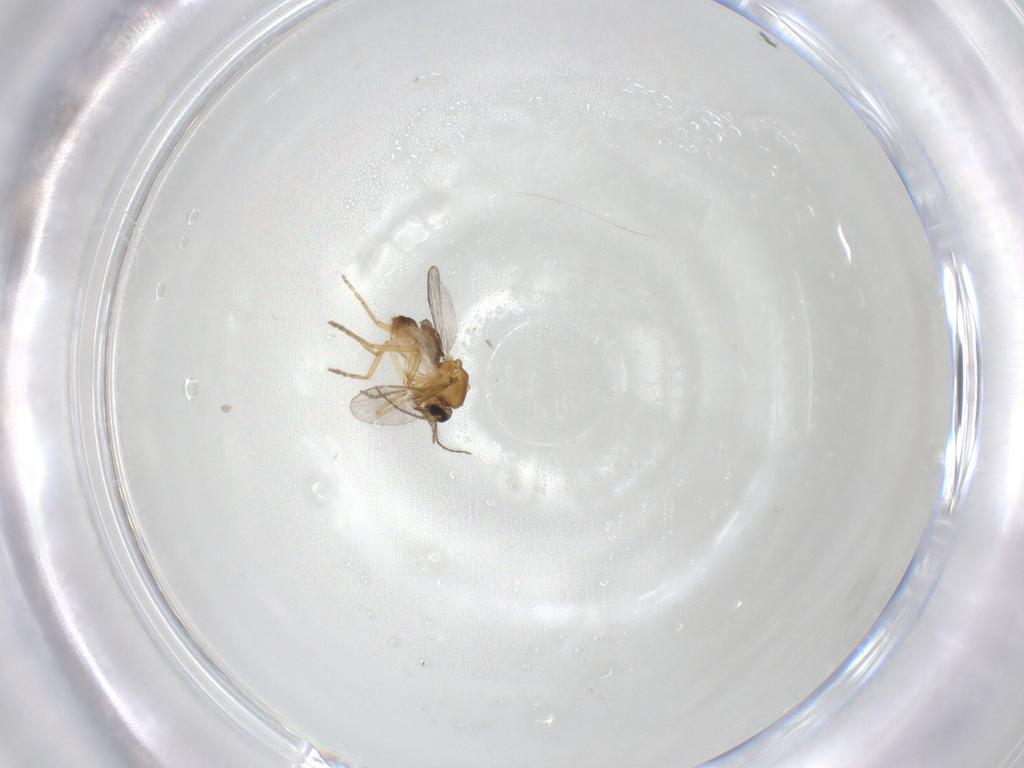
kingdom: Animalia
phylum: Arthropoda
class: Insecta
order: Diptera
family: Ceratopogonidae
